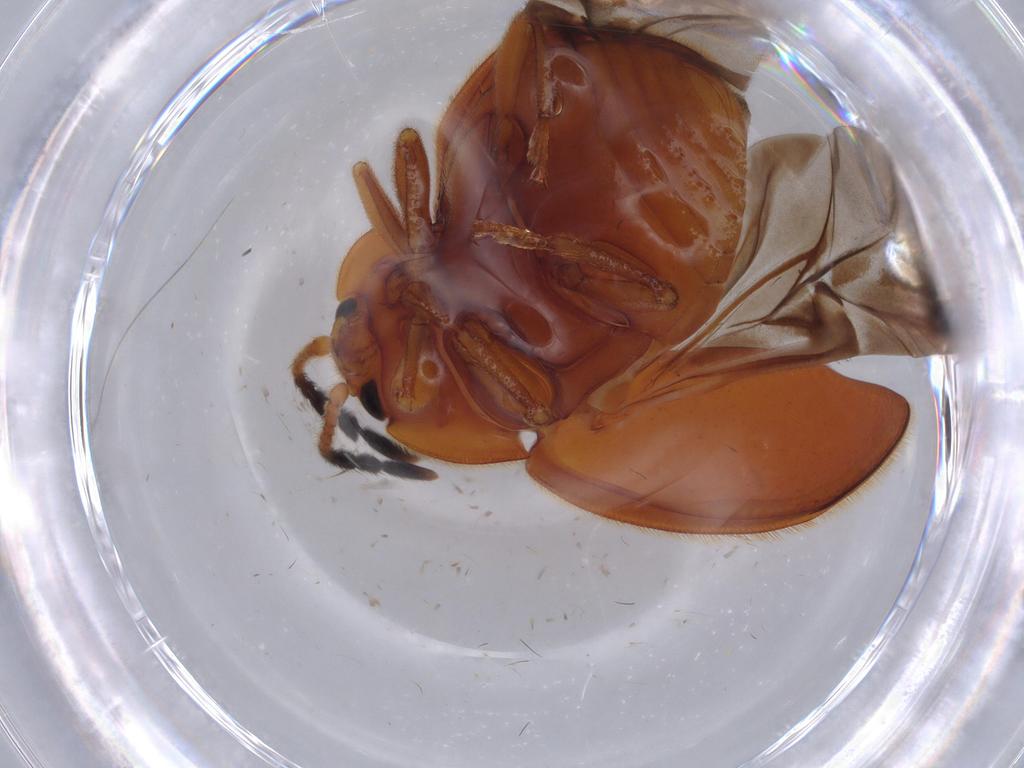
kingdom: Animalia
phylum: Arthropoda
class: Insecta
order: Coleoptera
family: Endomychidae
